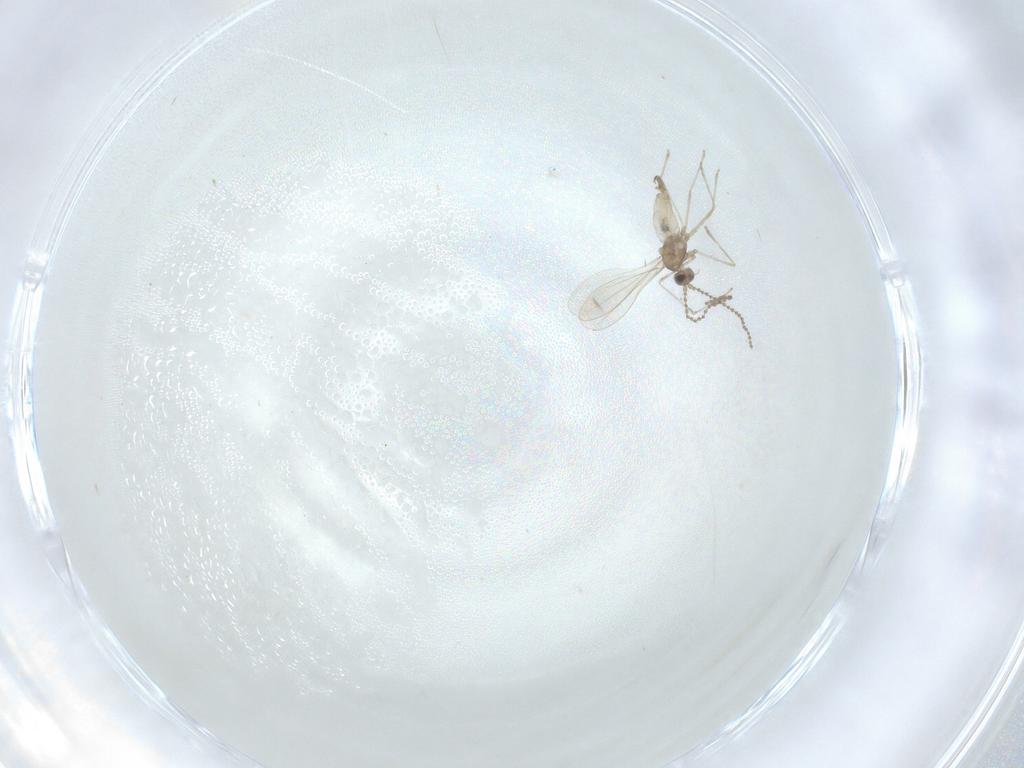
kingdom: Animalia
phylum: Arthropoda
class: Insecta
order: Diptera
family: Cecidomyiidae
